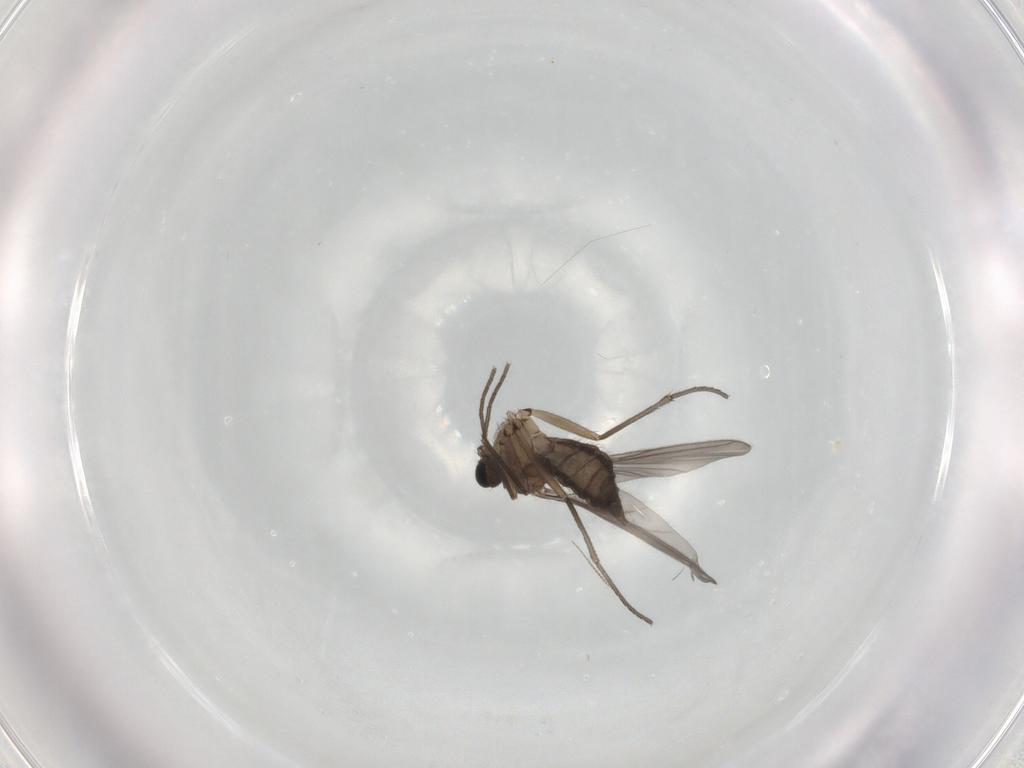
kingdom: Animalia
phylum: Arthropoda
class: Insecta
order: Diptera
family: Sciaridae
